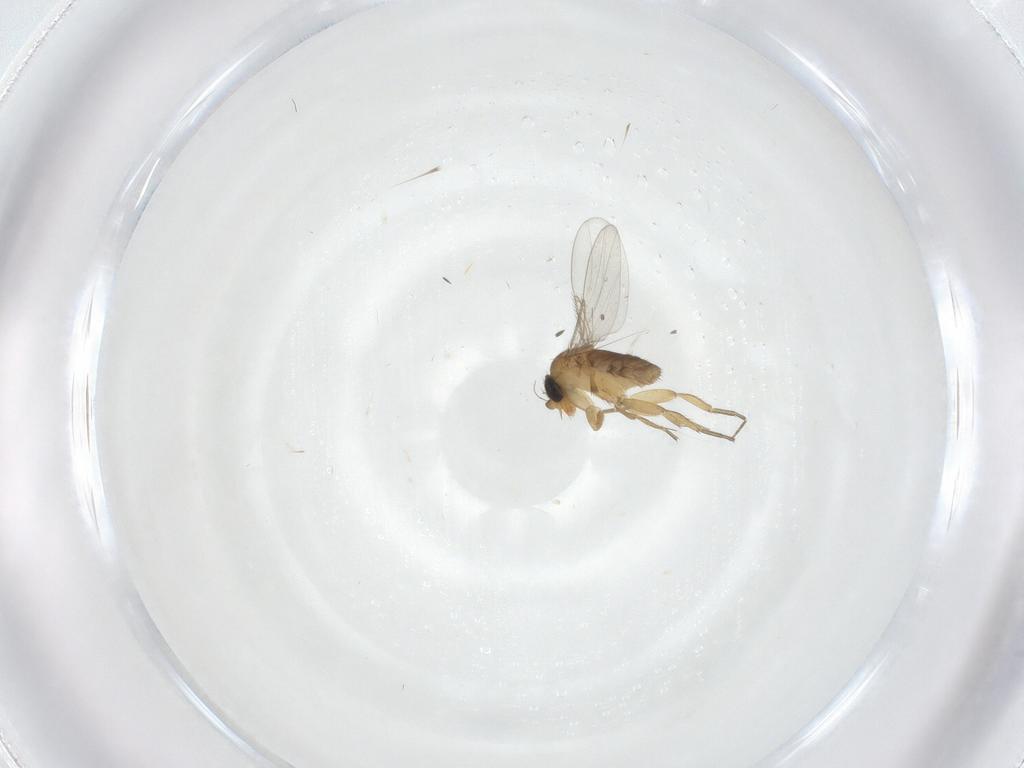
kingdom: Animalia
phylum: Arthropoda
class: Insecta
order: Diptera
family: Phoridae
